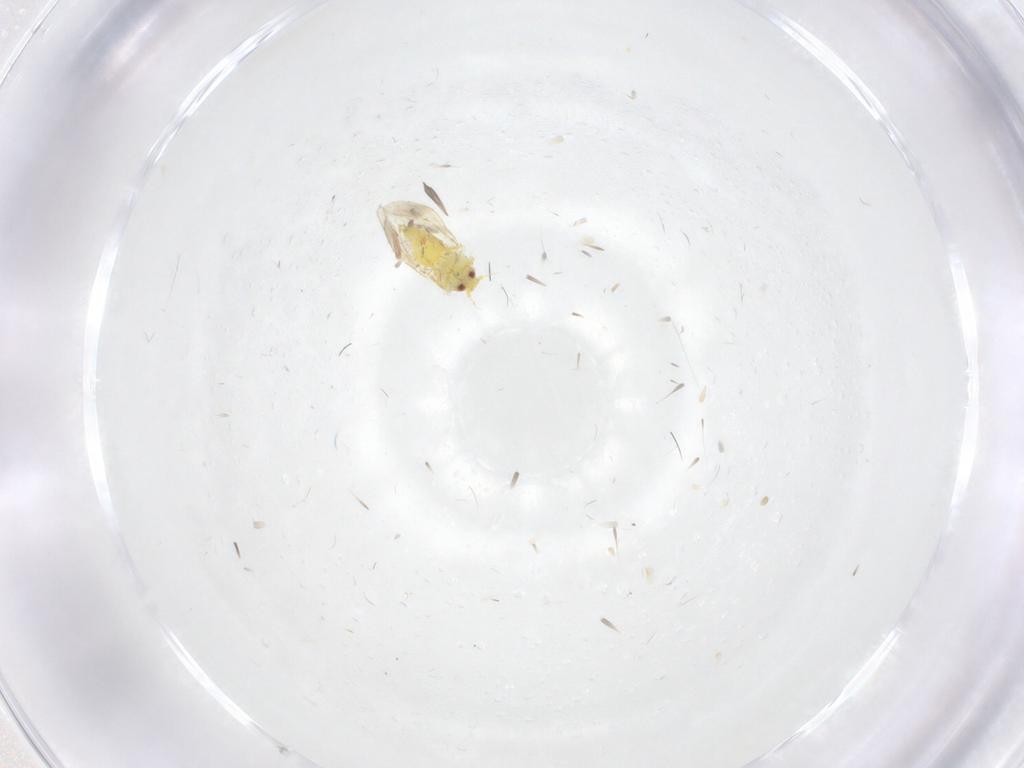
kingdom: Animalia
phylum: Arthropoda
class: Insecta
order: Hemiptera
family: Aleyrodidae
